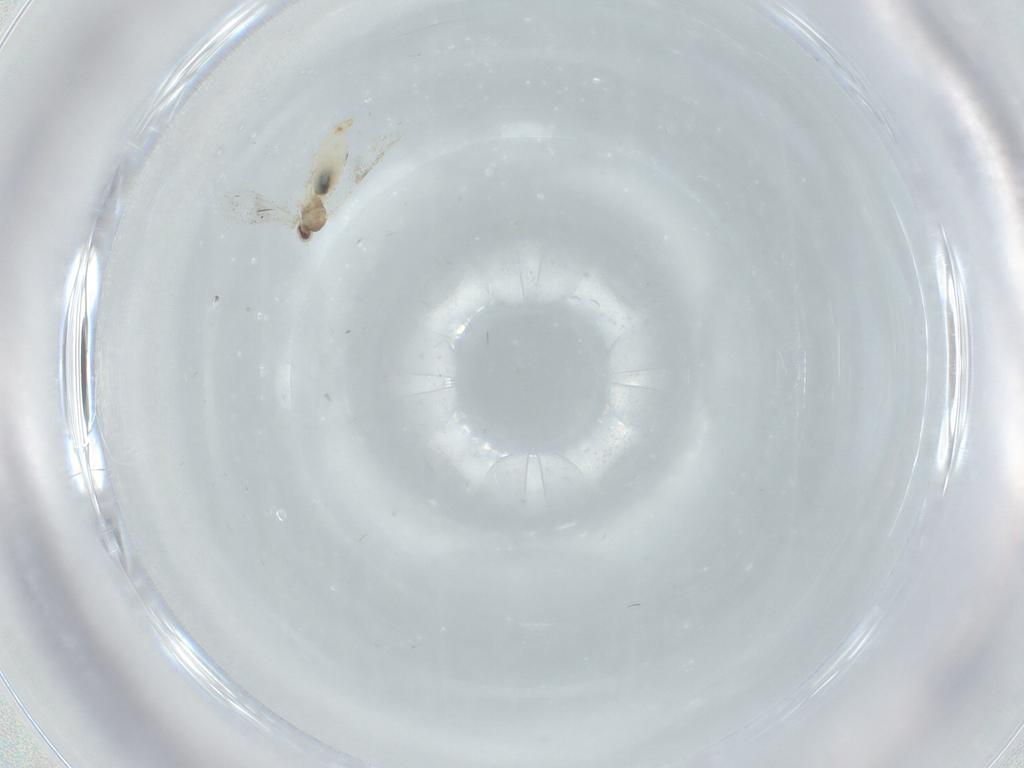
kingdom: Animalia
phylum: Arthropoda
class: Insecta
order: Diptera
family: Cecidomyiidae
